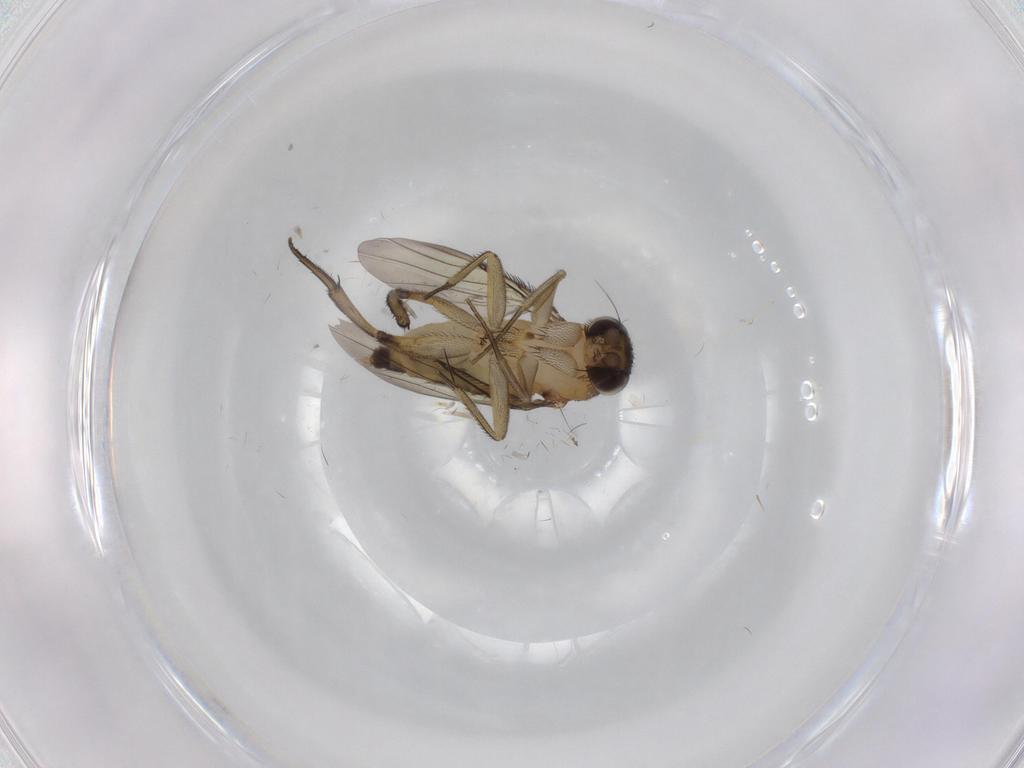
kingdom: Animalia
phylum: Arthropoda
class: Insecta
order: Diptera
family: Phoridae
